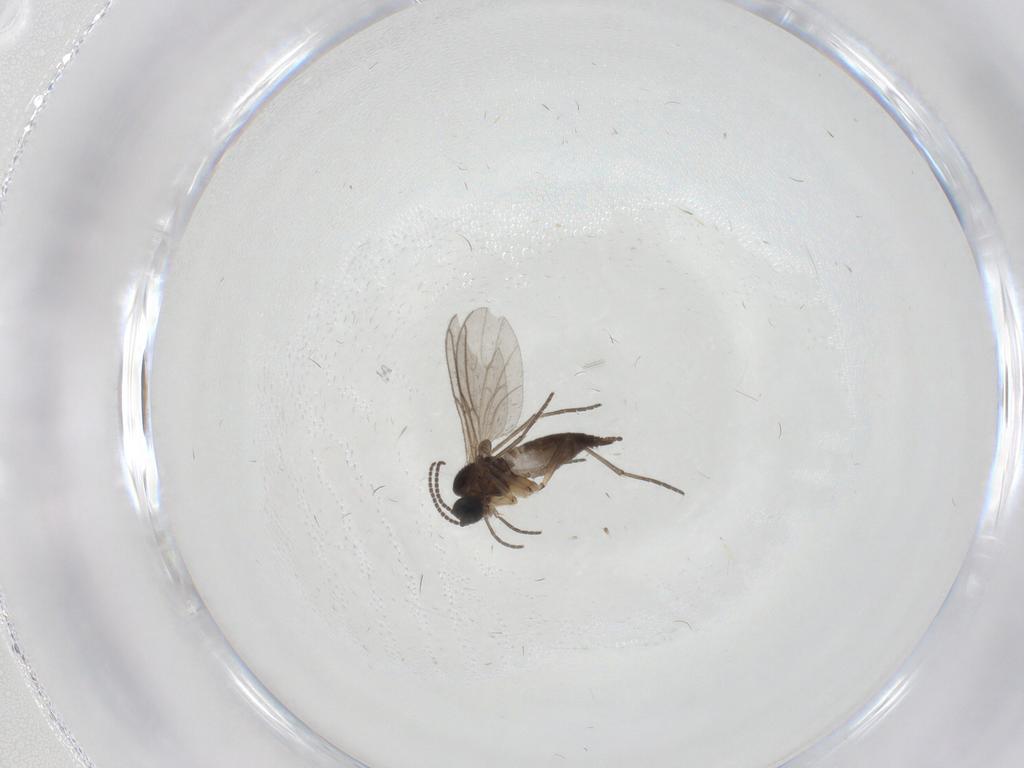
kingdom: Animalia
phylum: Arthropoda
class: Insecta
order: Diptera
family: Sciaridae
